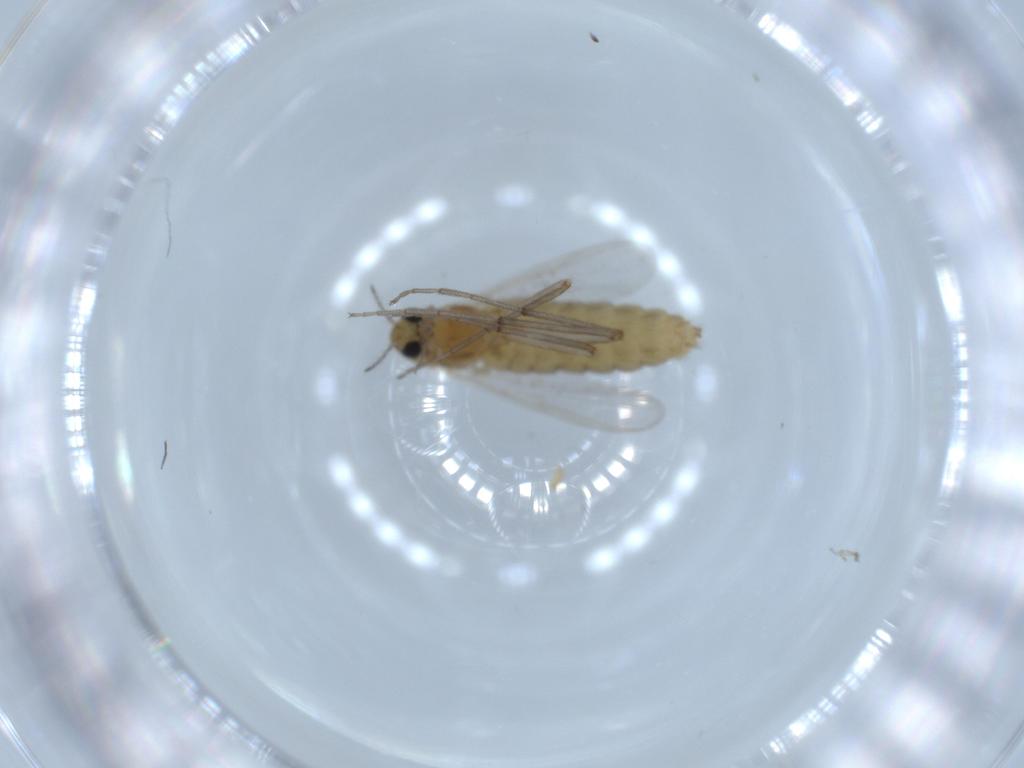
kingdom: Animalia
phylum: Arthropoda
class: Insecta
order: Diptera
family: Chironomidae
